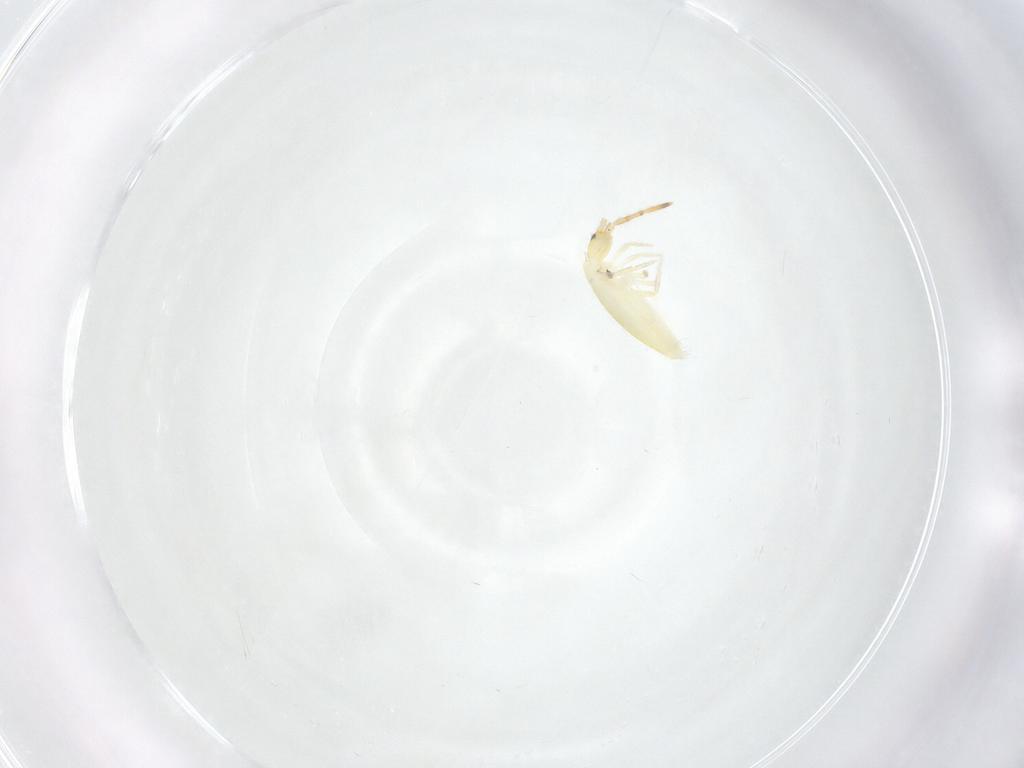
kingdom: Animalia
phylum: Arthropoda
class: Collembola
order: Entomobryomorpha
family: Entomobryidae
